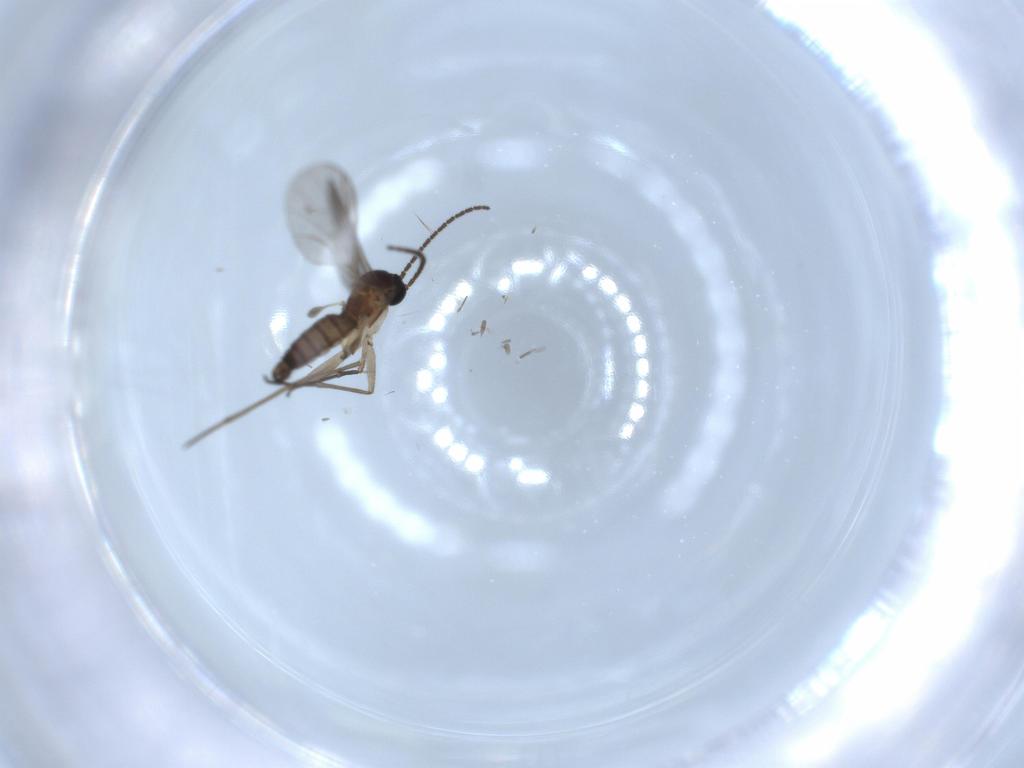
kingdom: Animalia
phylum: Arthropoda
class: Insecta
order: Diptera
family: Sciaridae
